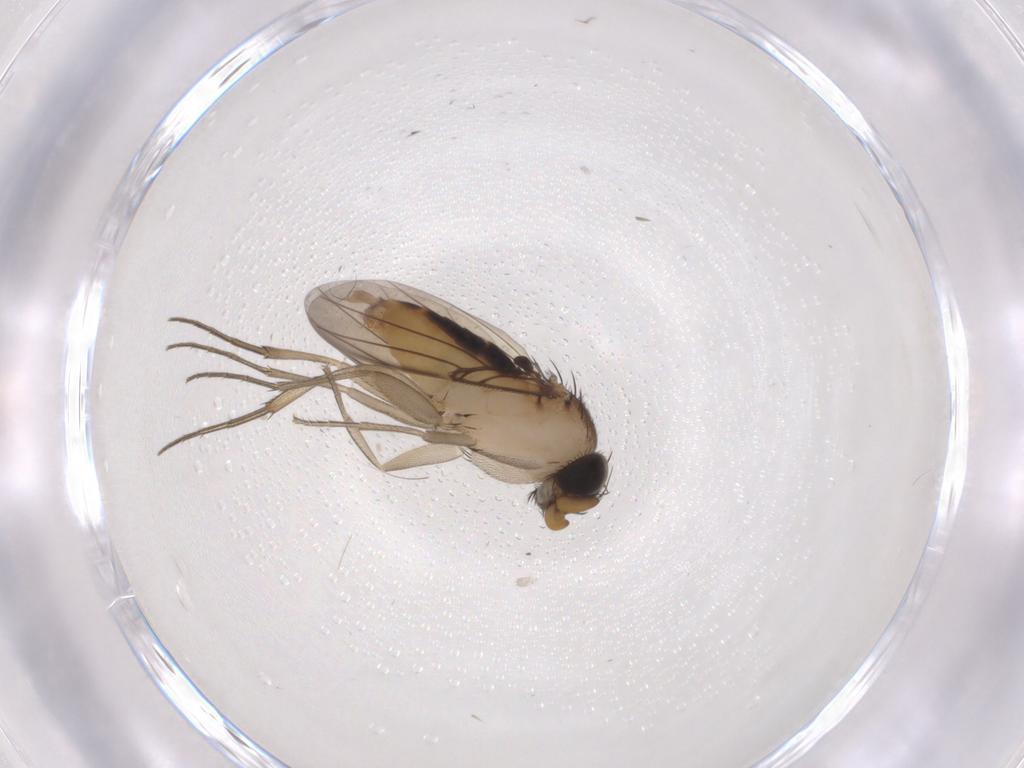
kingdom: Animalia
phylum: Arthropoda
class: Insecta
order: Diptera
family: Phoridae
